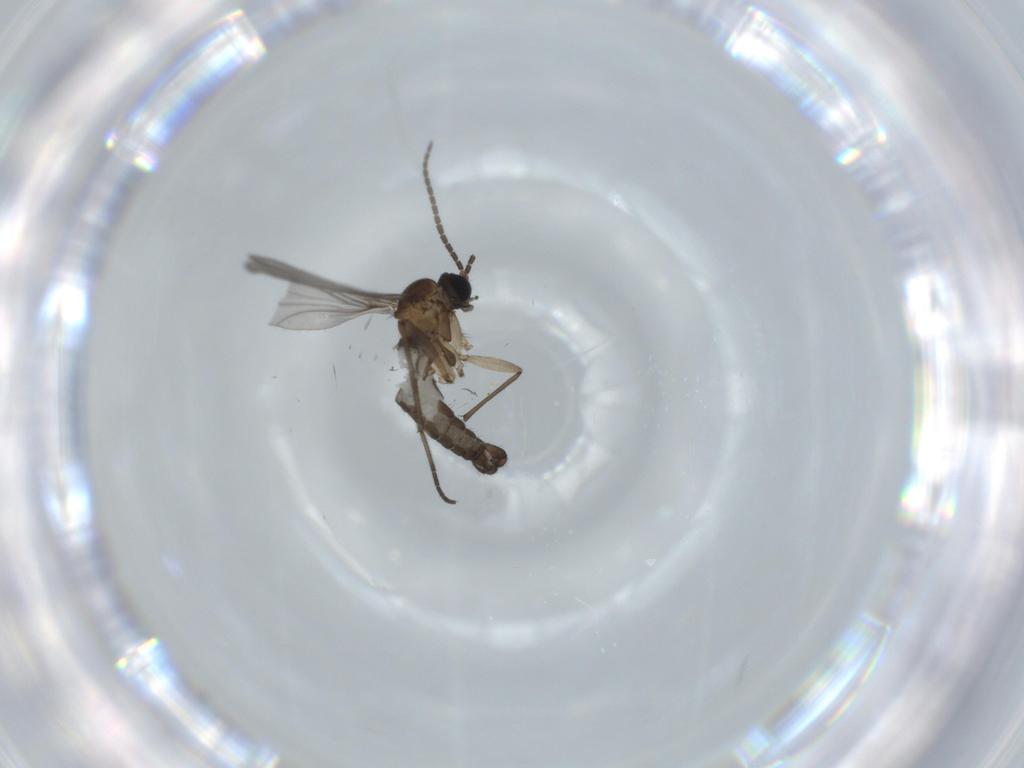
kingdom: Animalia
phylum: Arthropoda
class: Insecta
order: Diptera
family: Sciaridae
